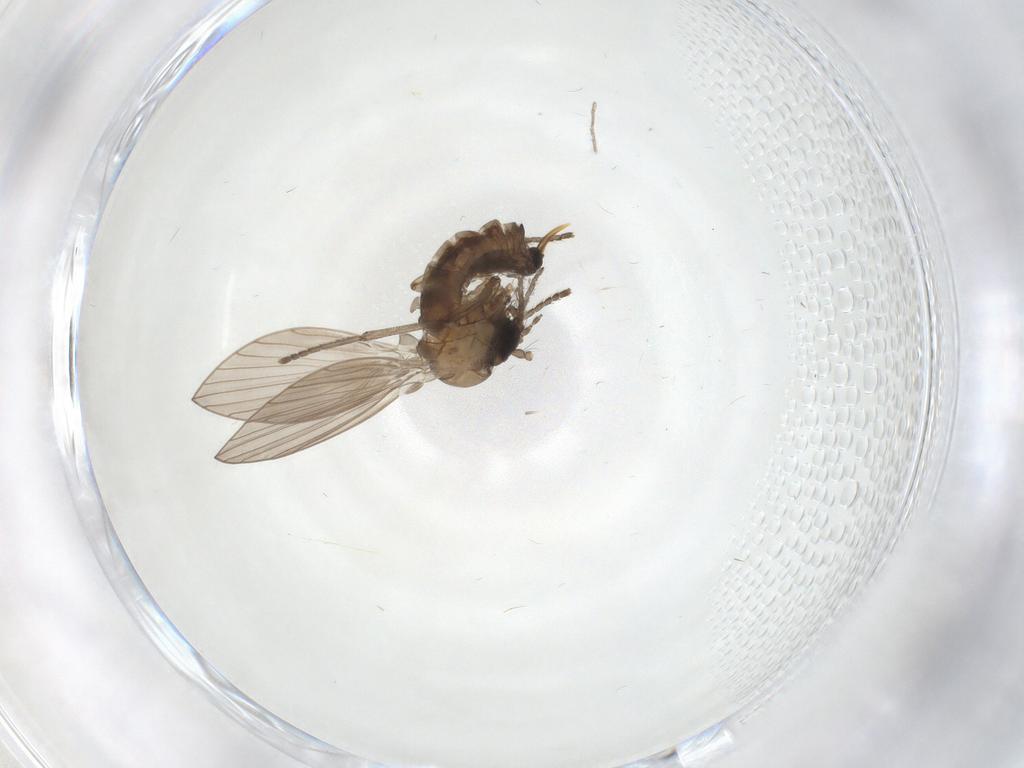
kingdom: Animalia
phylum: Arthropoda
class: Insecta
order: Diptera
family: Psychodidae
